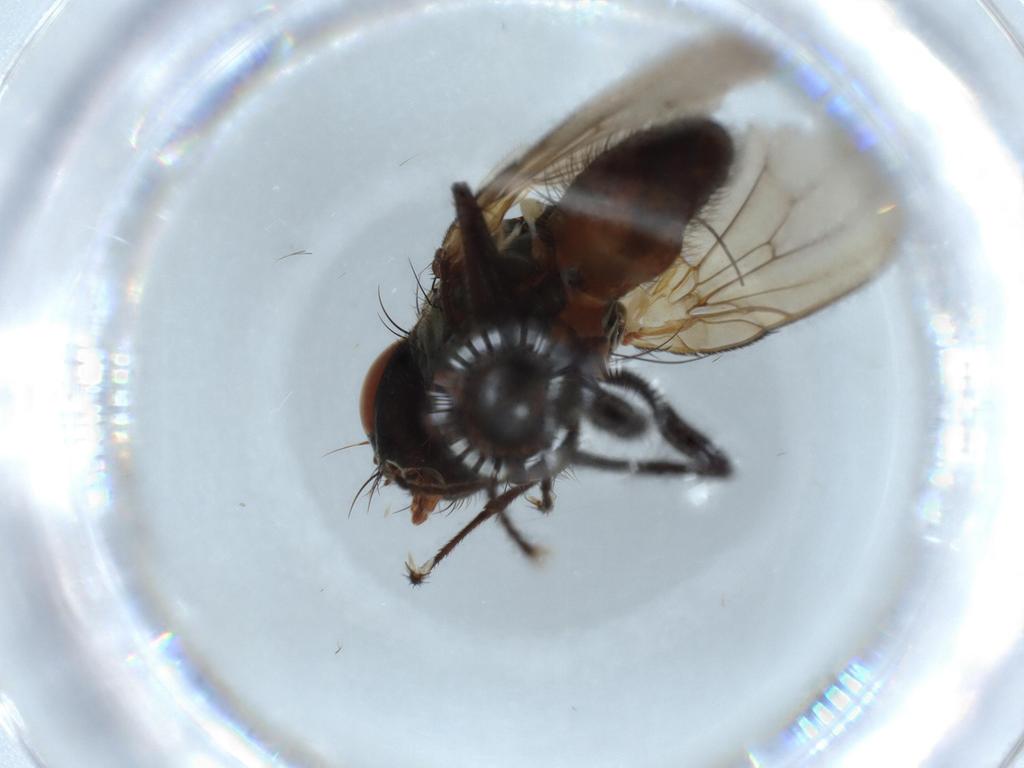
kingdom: Animalia
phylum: Arthropoda
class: Insecta
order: Diptera
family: Anthomyiidae
